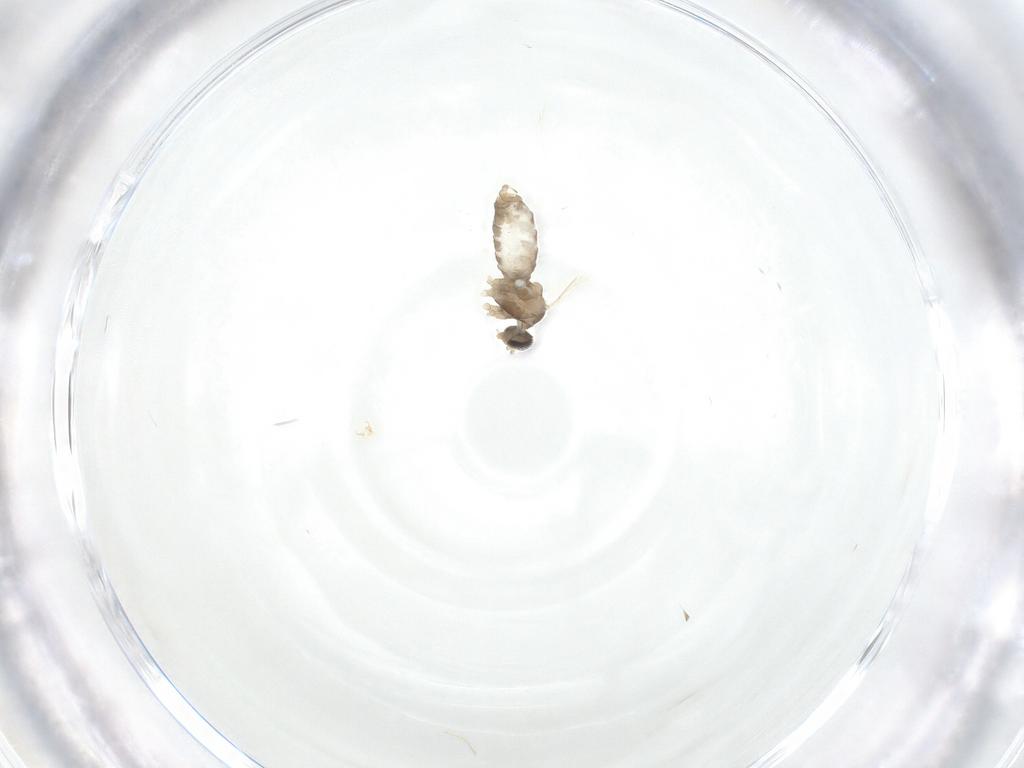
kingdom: Animalia
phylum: Arthropoda
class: Insecta
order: Diptera
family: Cecidomyiidae
